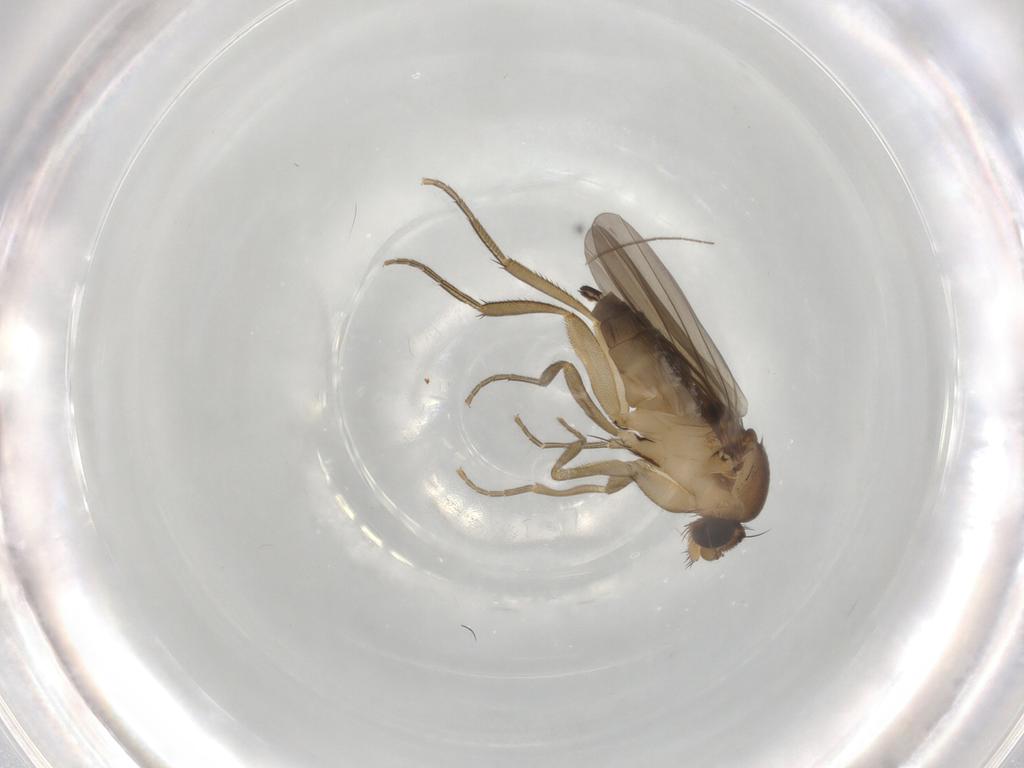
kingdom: Animalia
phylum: Arthropoda
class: Insecta
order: Diptera
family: Phoridae
